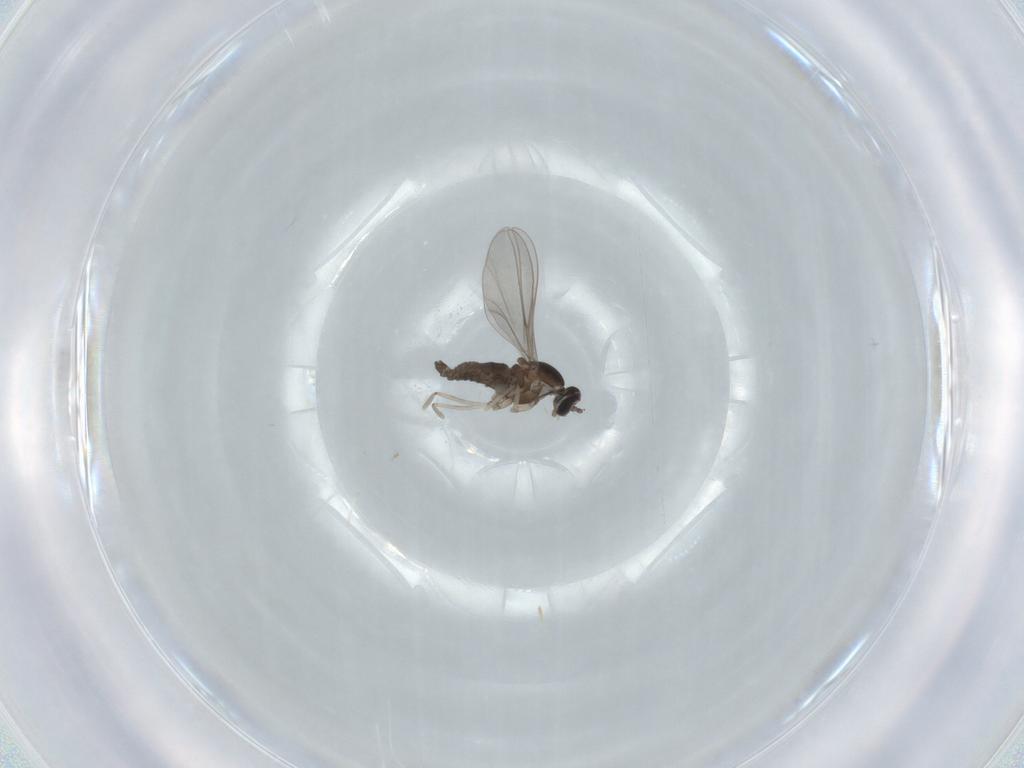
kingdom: Animalia
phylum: Arthropoda
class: Insecta
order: Diptera
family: Cecidomyiidae
